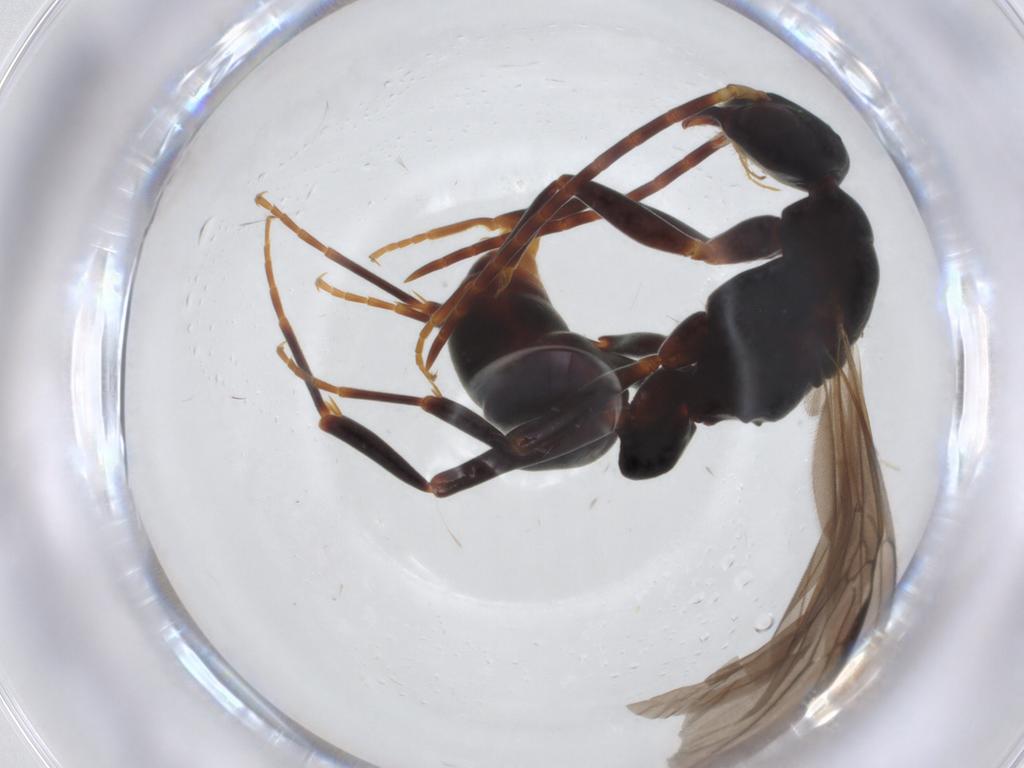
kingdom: Animalia
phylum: Arthropoda
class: Insecta
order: Hymenoptera
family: Formicidae
